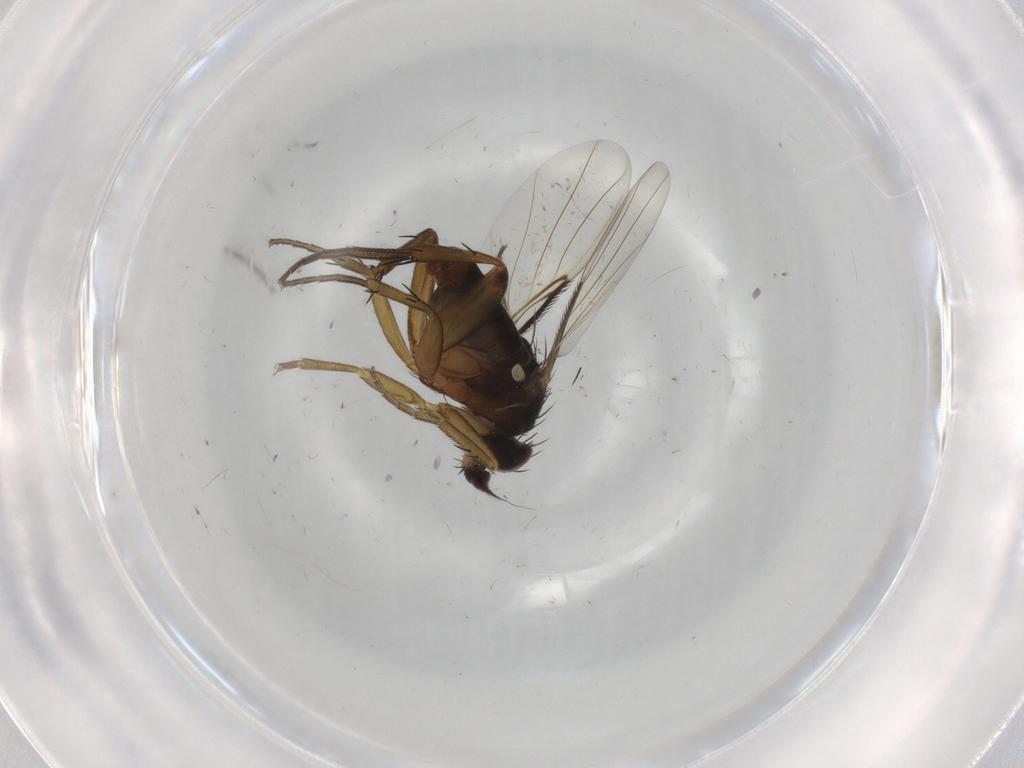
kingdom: Animalia
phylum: Arthropoda
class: Insecta
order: Diptera
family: Phoridae
